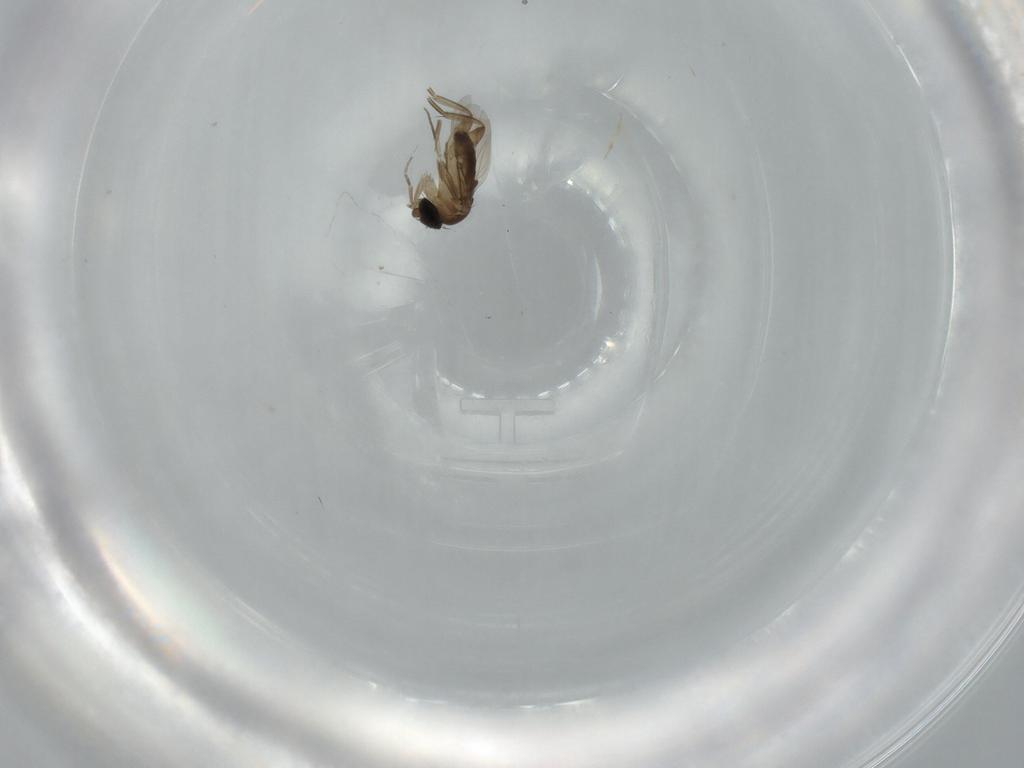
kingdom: Animalia
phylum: Arthropoda
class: Insecta
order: Diptera
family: Phoridae
